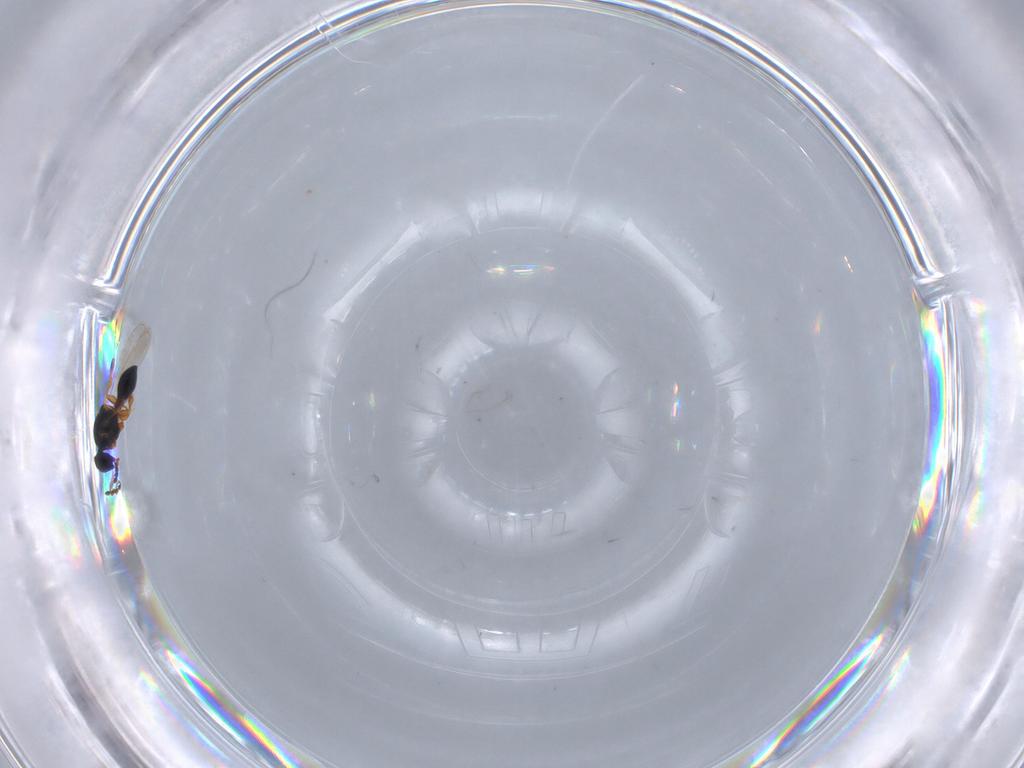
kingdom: Animalia
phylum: Arthropoda
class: Insecta
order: Hymenoptera
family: Platygastridae
